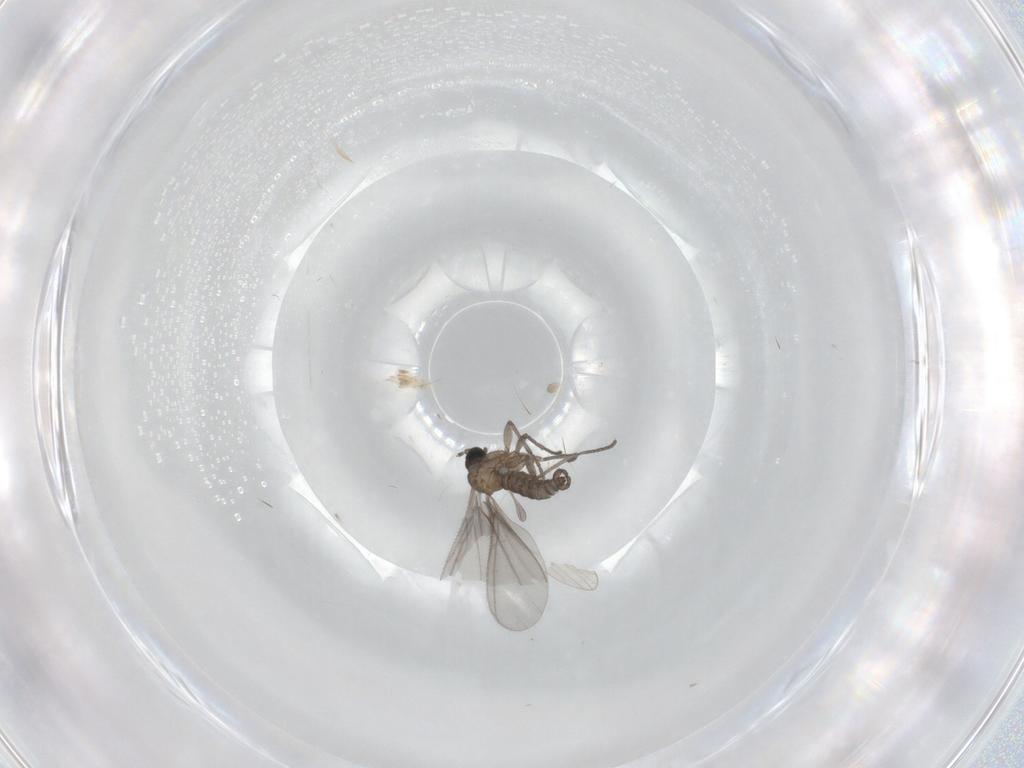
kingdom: Animalia
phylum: Arthropoda
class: Insecta
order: Diptera
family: Sciaridae
